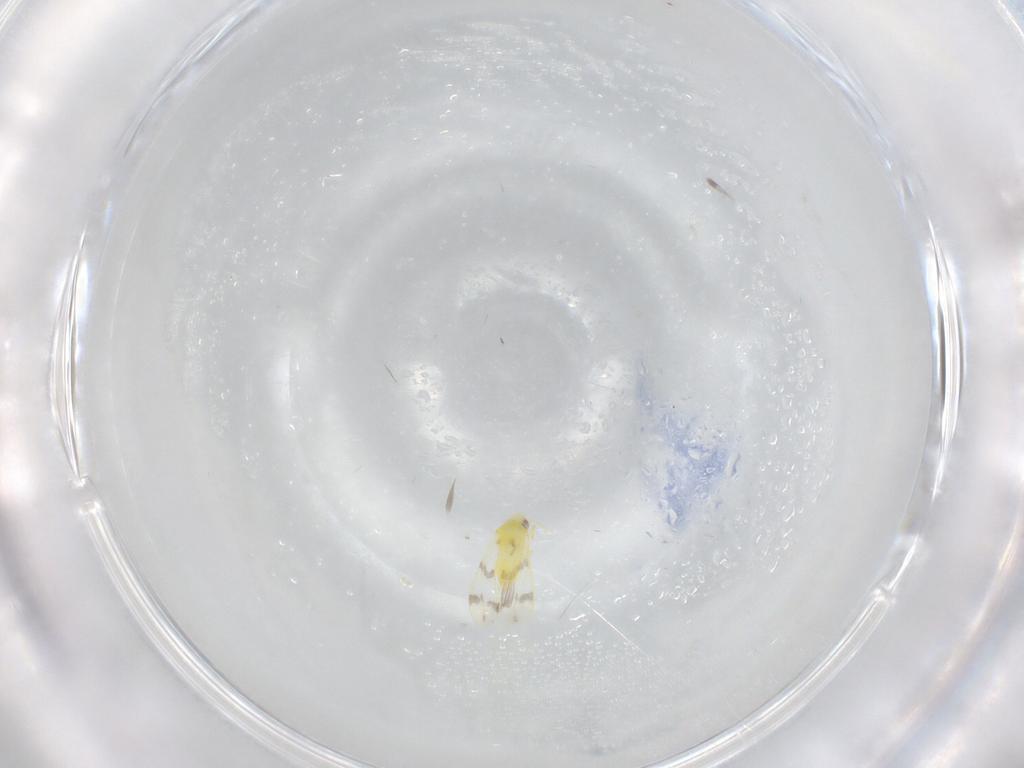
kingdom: Animalia
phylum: Arthropoda
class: Insecta
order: Hemiptera
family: Aleyrodidae
